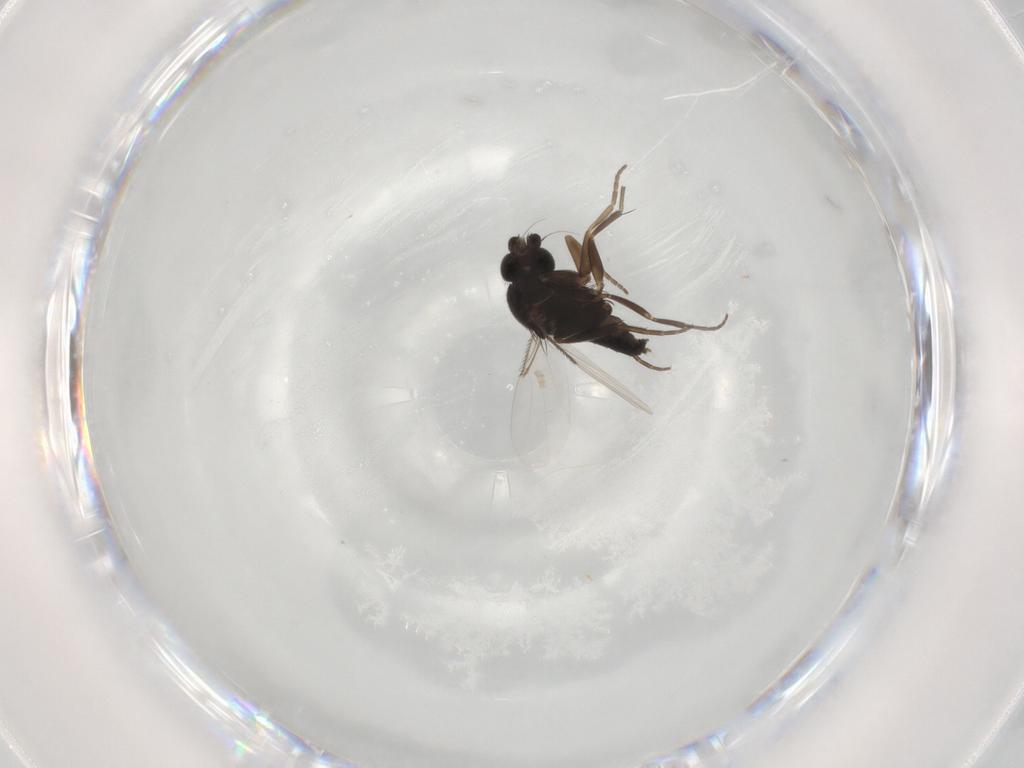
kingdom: Animalia
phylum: Arthropoda
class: Insecta
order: Diptera
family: Phoridae
